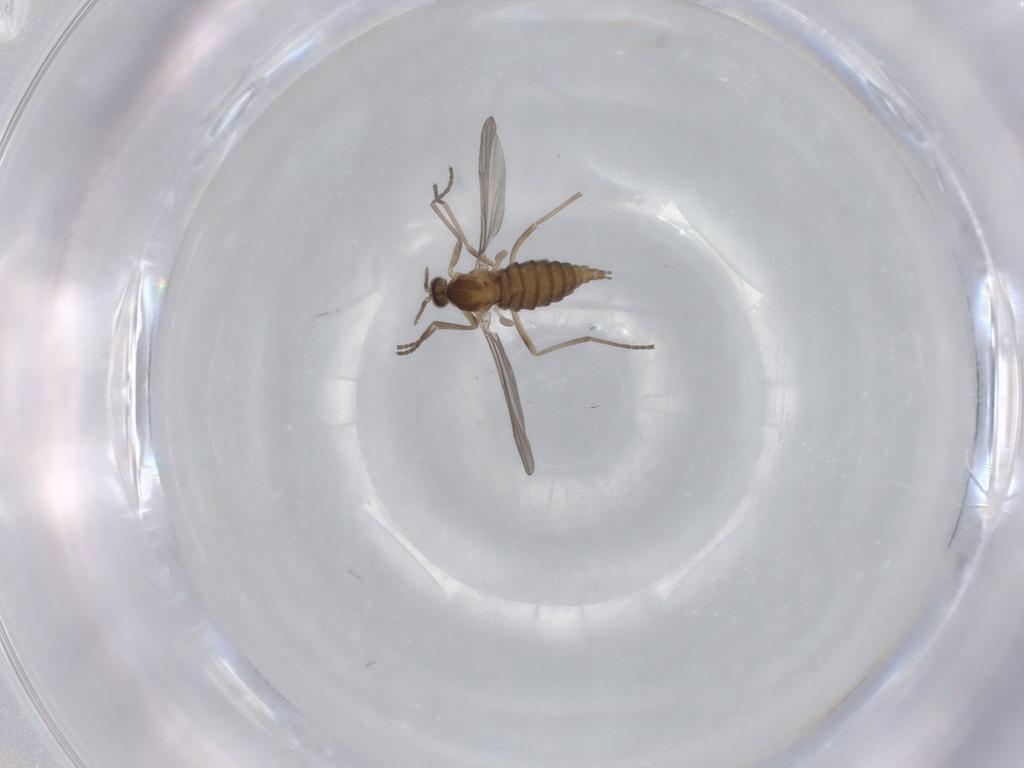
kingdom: Animalia
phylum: Arthropoda
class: Insecta
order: Diptera
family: Cecidomyiidae
